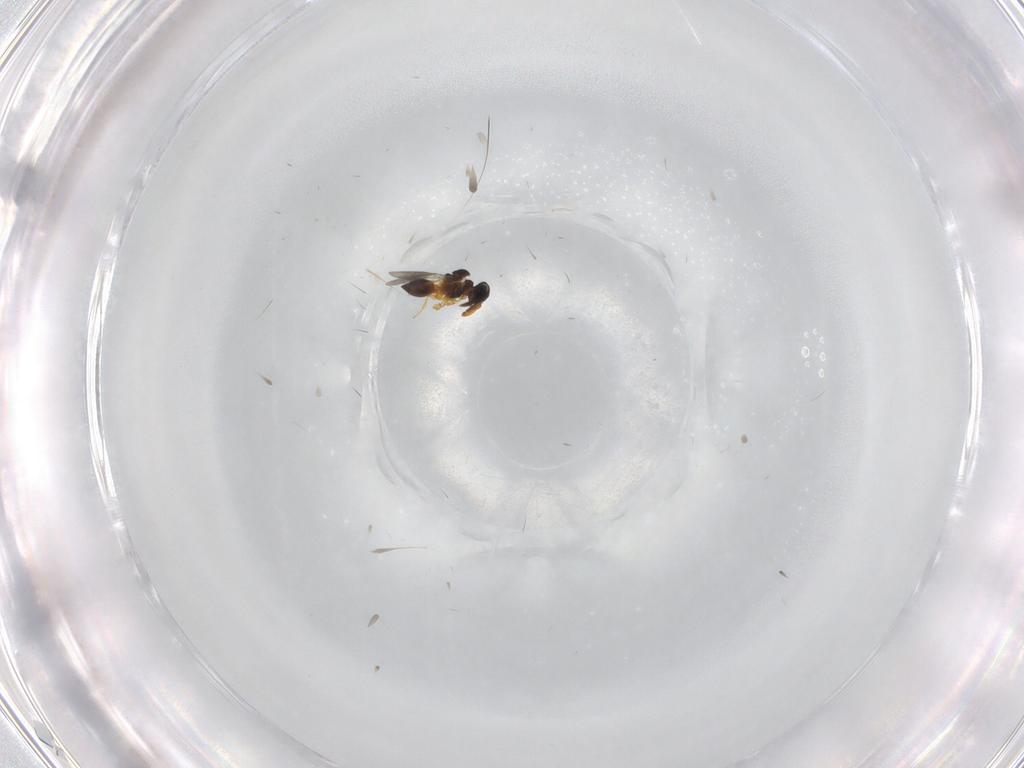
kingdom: Animalia
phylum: Arthropoda
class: Insecta
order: Hymenoptera
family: Platygastridae
